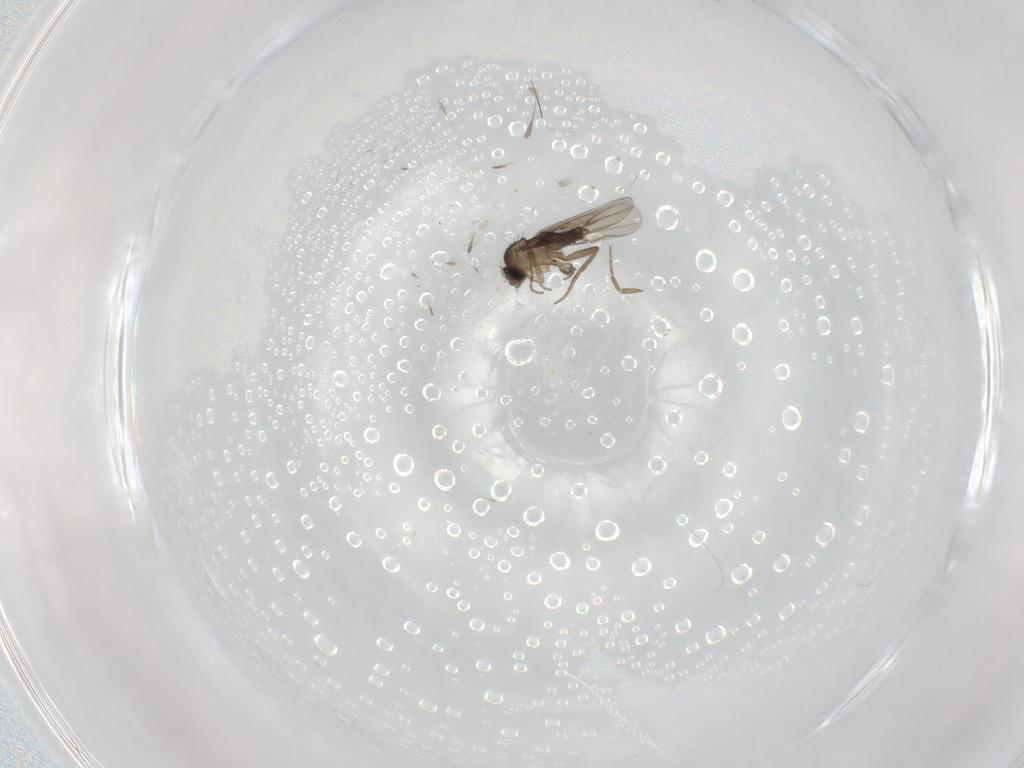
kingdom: Animalia
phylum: Arthropoda
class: Insecta
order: Diptera
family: Cecidomyiidae
